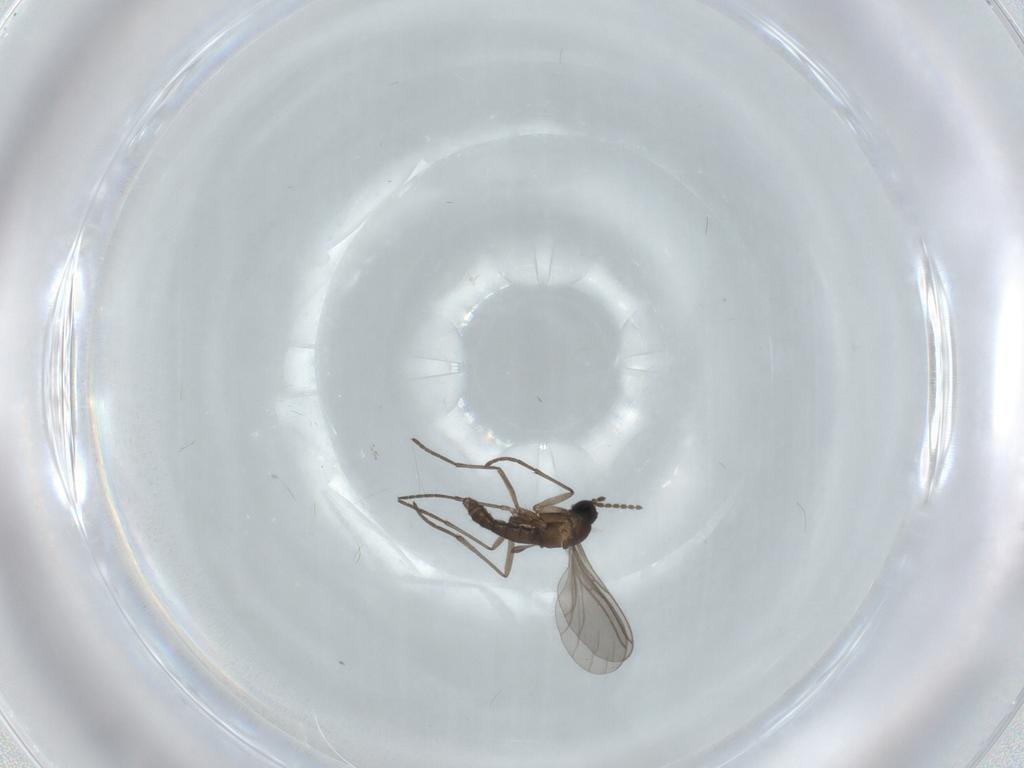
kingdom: Animalia
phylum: Arthropoda
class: Insecta
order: Diptera
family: Sciaridae
